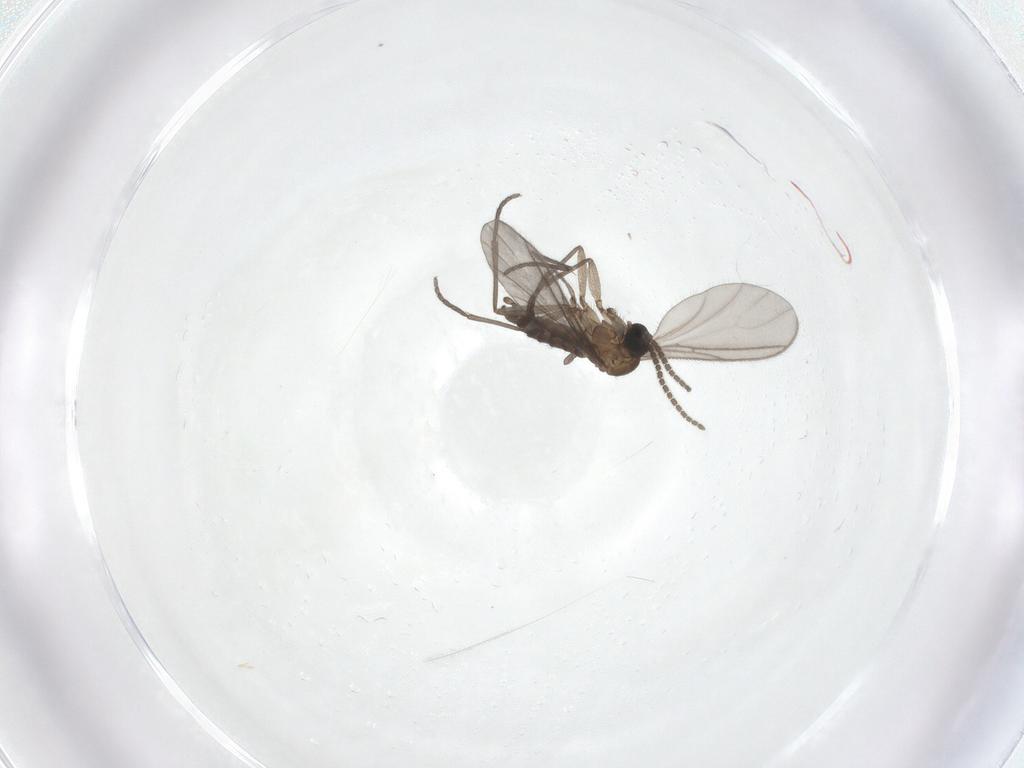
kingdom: Animalia
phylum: Arthropoda
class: Insecta
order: Diptera
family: Sciaridae
